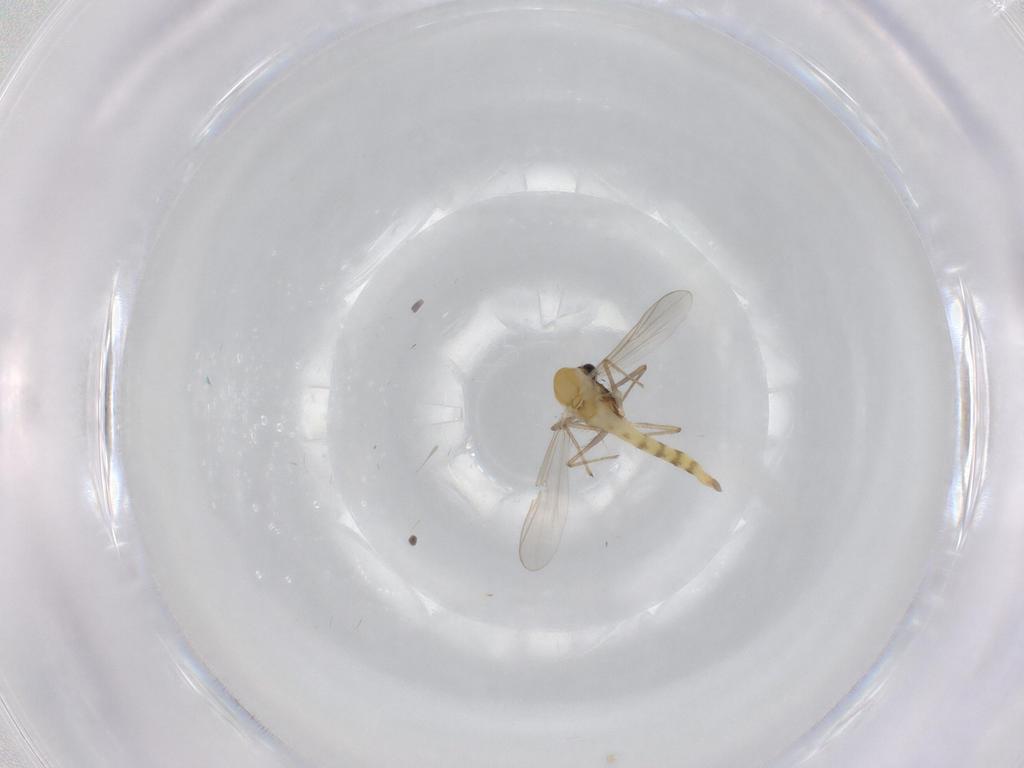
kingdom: Animalia
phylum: Arthropoda
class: Insecta
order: Diptera
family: Chironomidae
